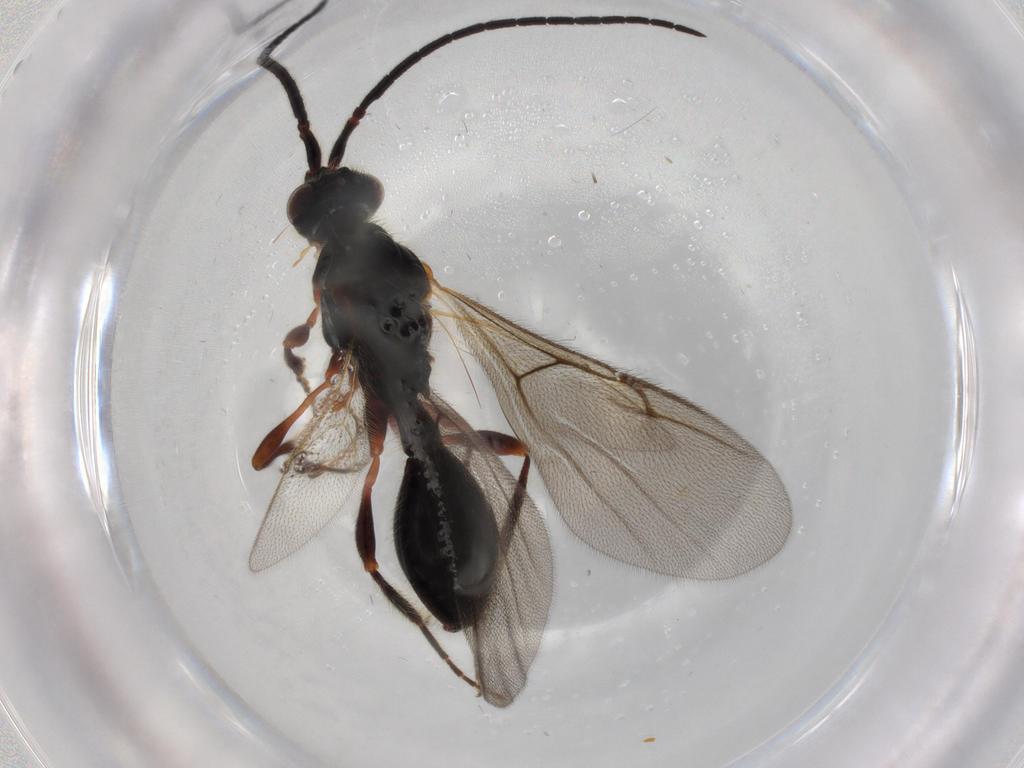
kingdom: Animalia
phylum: Arthropoda
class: Insecta
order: Hymenoptera
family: Diapriidae
